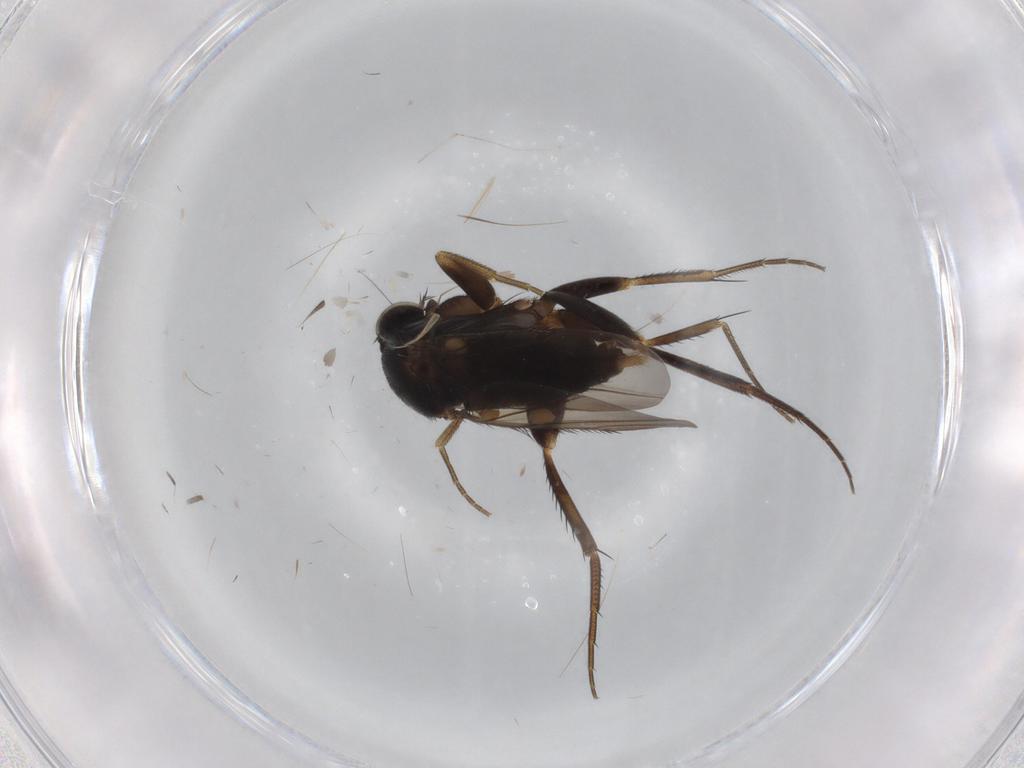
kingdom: Animalia
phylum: Arthropoda
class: Insecta
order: Diptera
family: Phoridae
